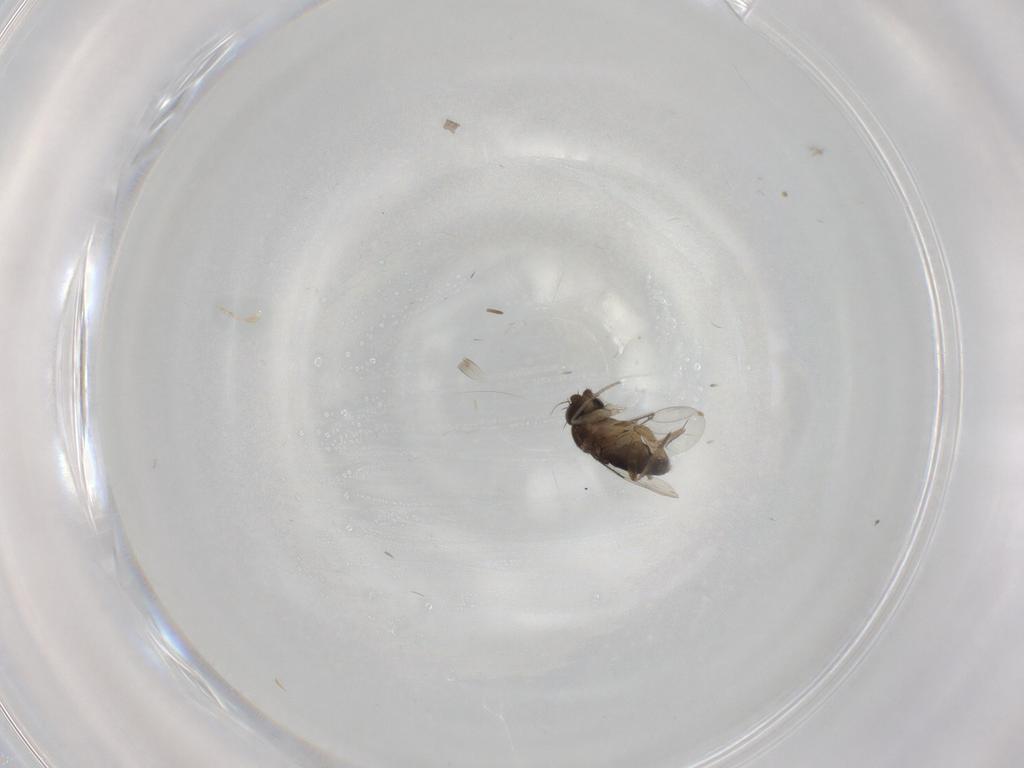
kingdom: Animalia
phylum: Arthropoda
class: Insecta
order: Diptera
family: Phoridae
